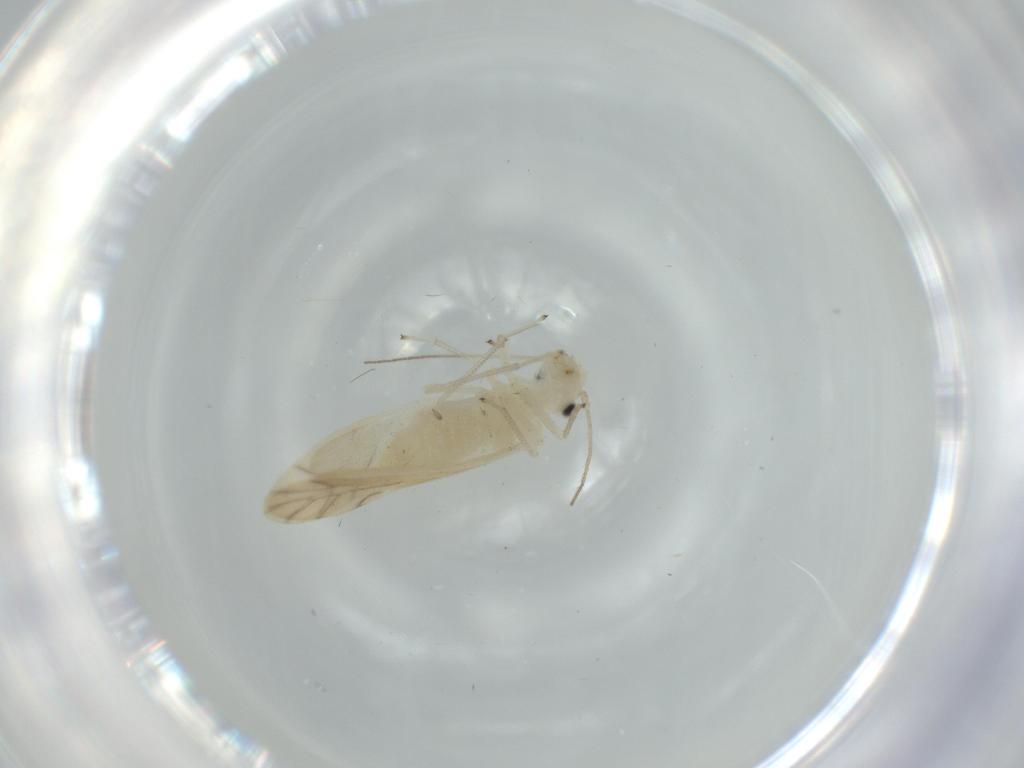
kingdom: Animalia
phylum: Arthropoda
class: Insecta
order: Psocodea
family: Caeciliusidae
